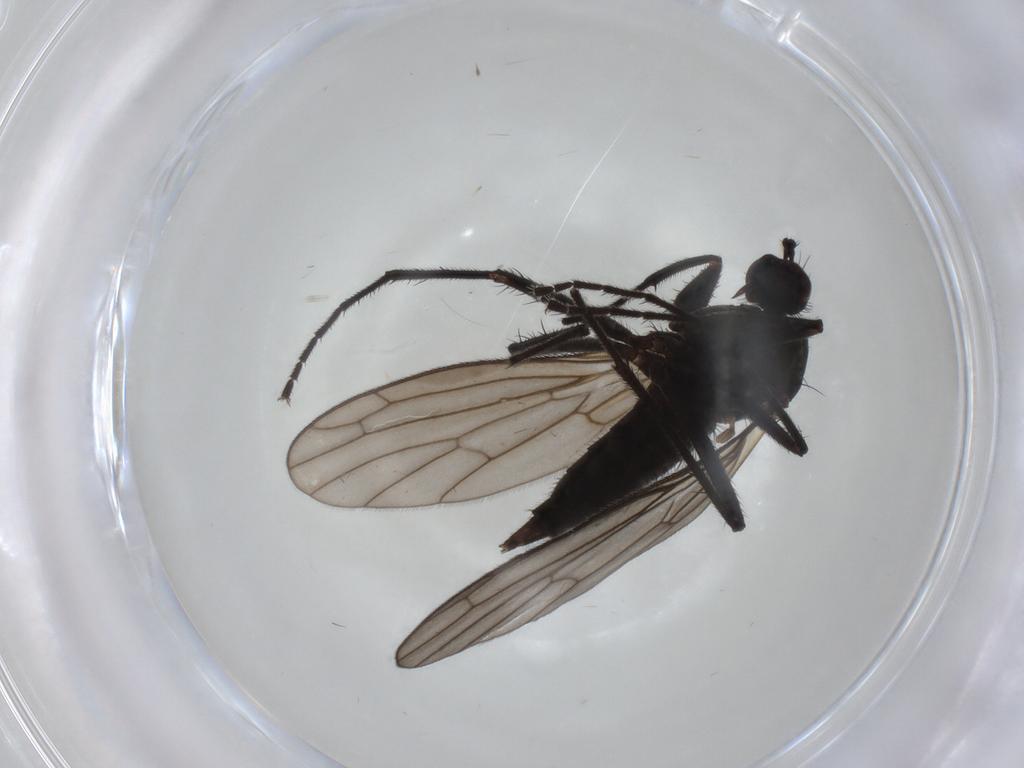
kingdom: Animalia
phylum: Arthropoda
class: Insecta
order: Diptera
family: Empididae
